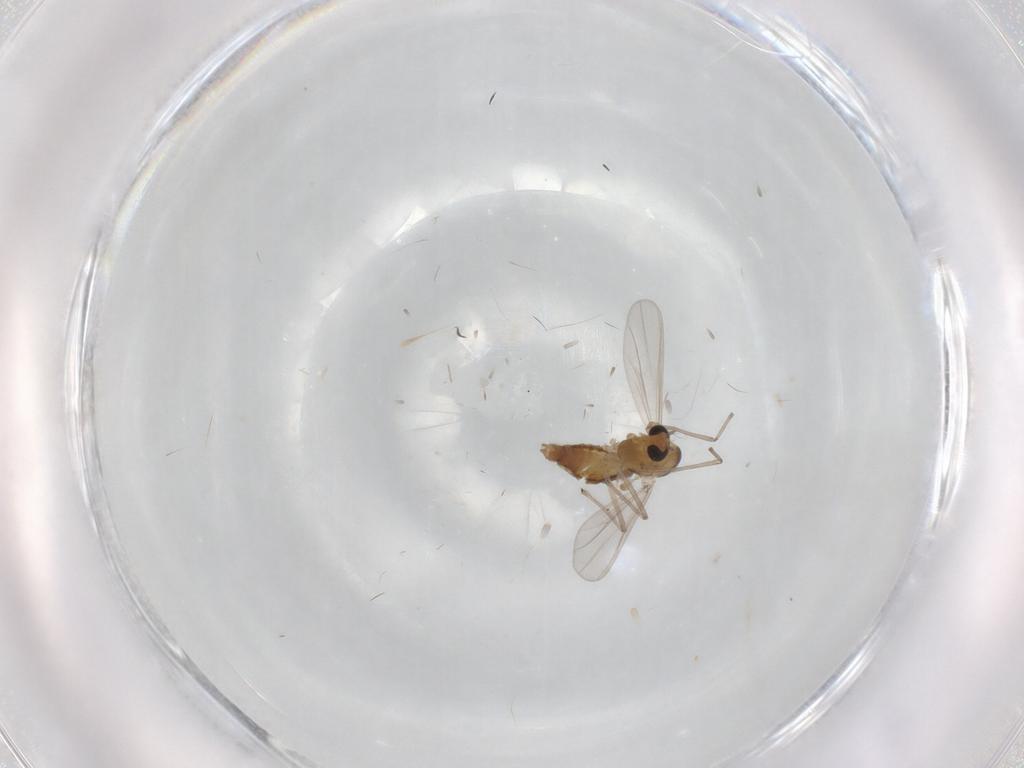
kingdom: Animalia
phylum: Arthropoda
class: Insecta
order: Diptera
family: Chironomidae
